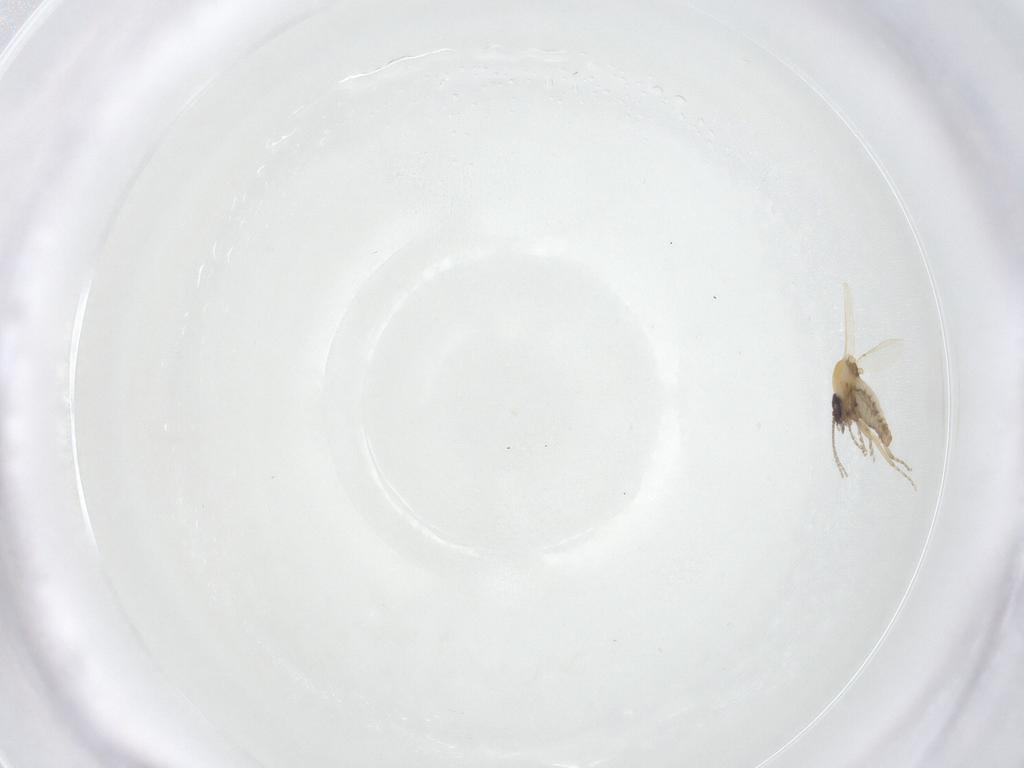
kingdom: Animalia
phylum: Arthropoda
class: Insecta
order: Diptera
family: Ceratopogonidae
